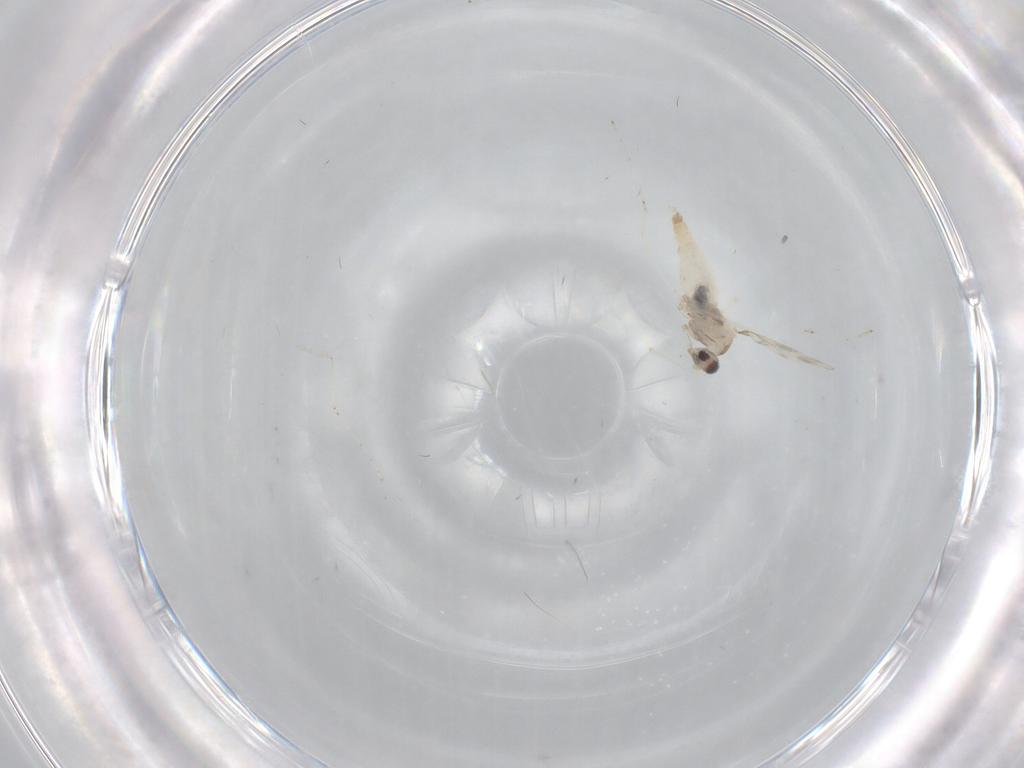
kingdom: Animalia
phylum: Arthropoda
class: Insecta
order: Diptera
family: Cecidomyiidae
